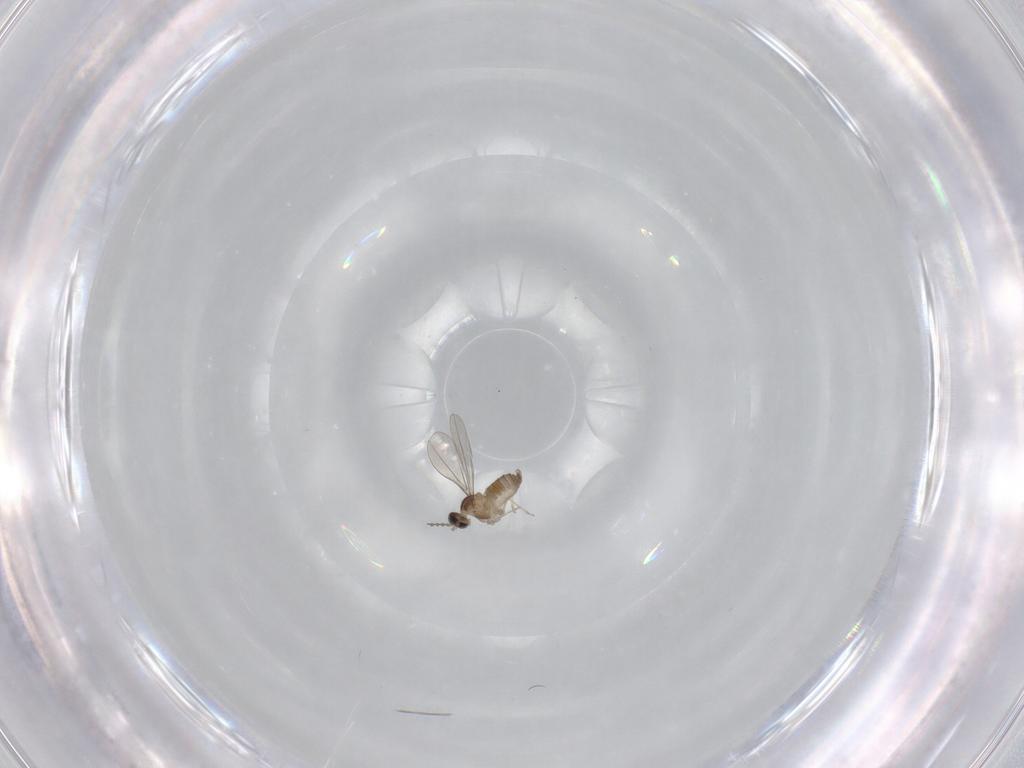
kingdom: Animalia
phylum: Arthropoda
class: Insecta
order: Diptera
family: Cecidomyiidae
